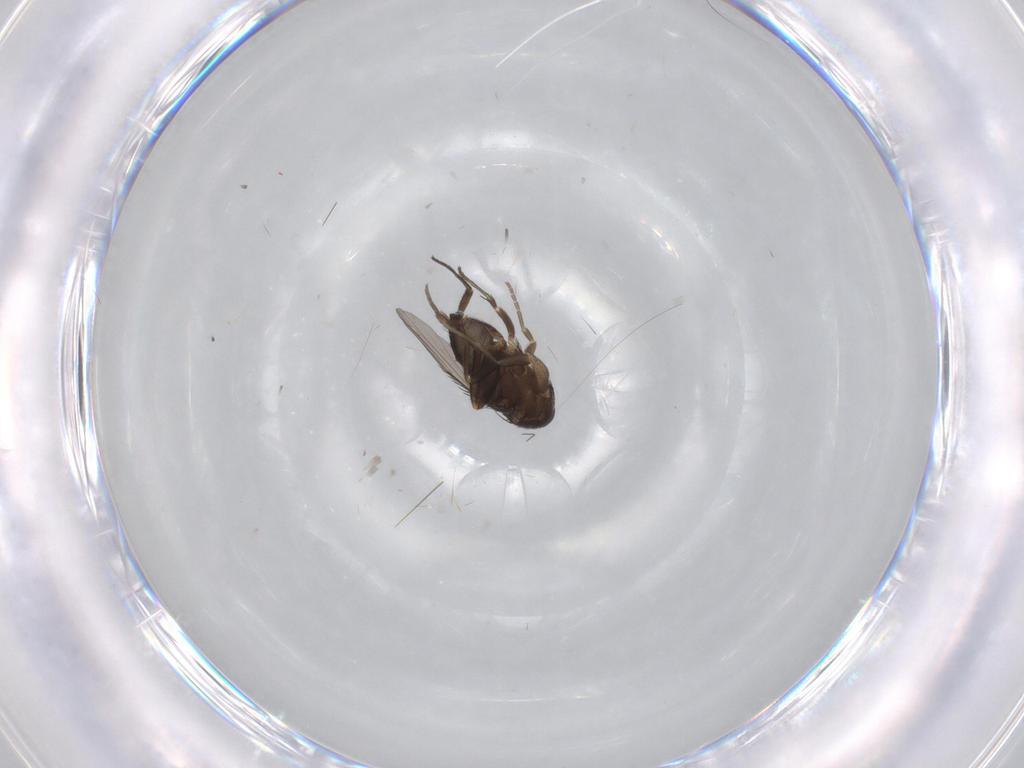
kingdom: Animalia
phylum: Arthropoda
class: Insecta
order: Diptera
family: Phoridae
